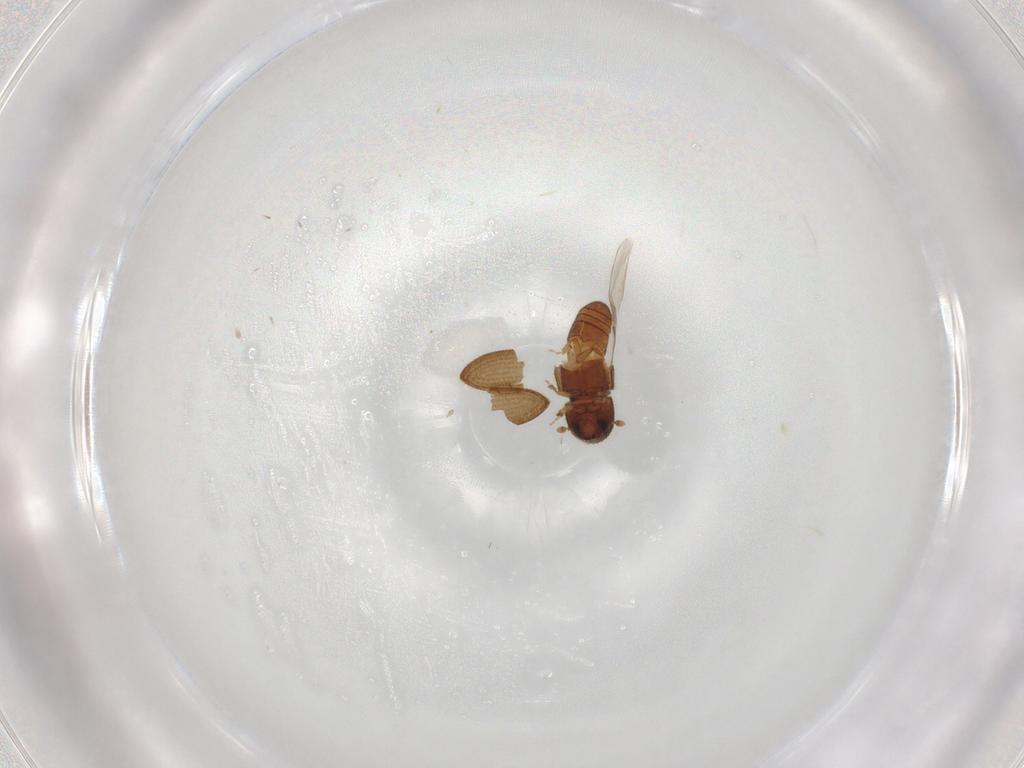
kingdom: Animalia
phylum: Arthropoda
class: Insecta
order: Coleoptera
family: Curculionidae
